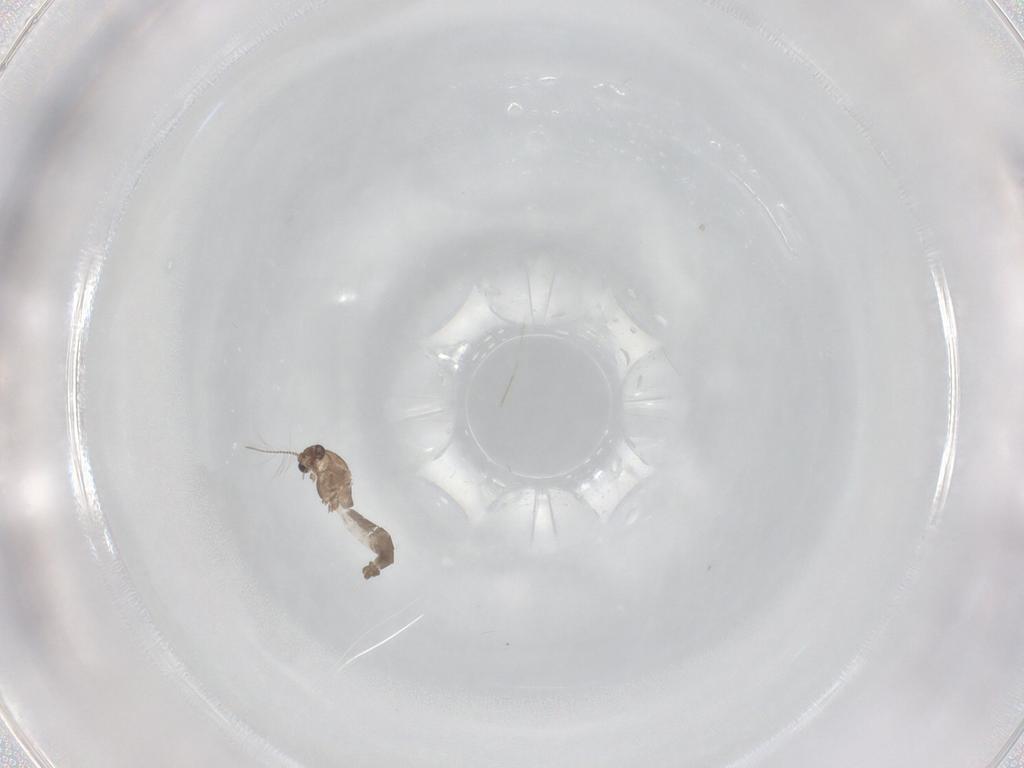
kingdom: Animalia
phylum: Arthropoda
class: Insecta
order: Diptera
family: Chironomidae
